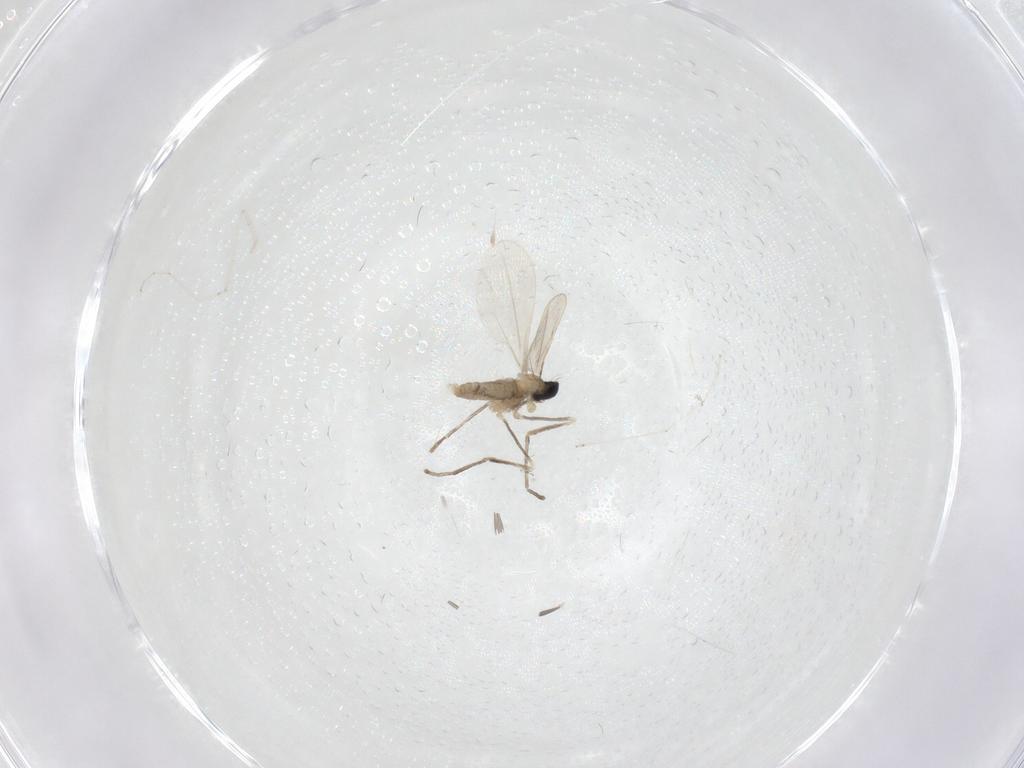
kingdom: Animalia
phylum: Arthropoda
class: Insecta
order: Diptera
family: Cecidomyiidae
